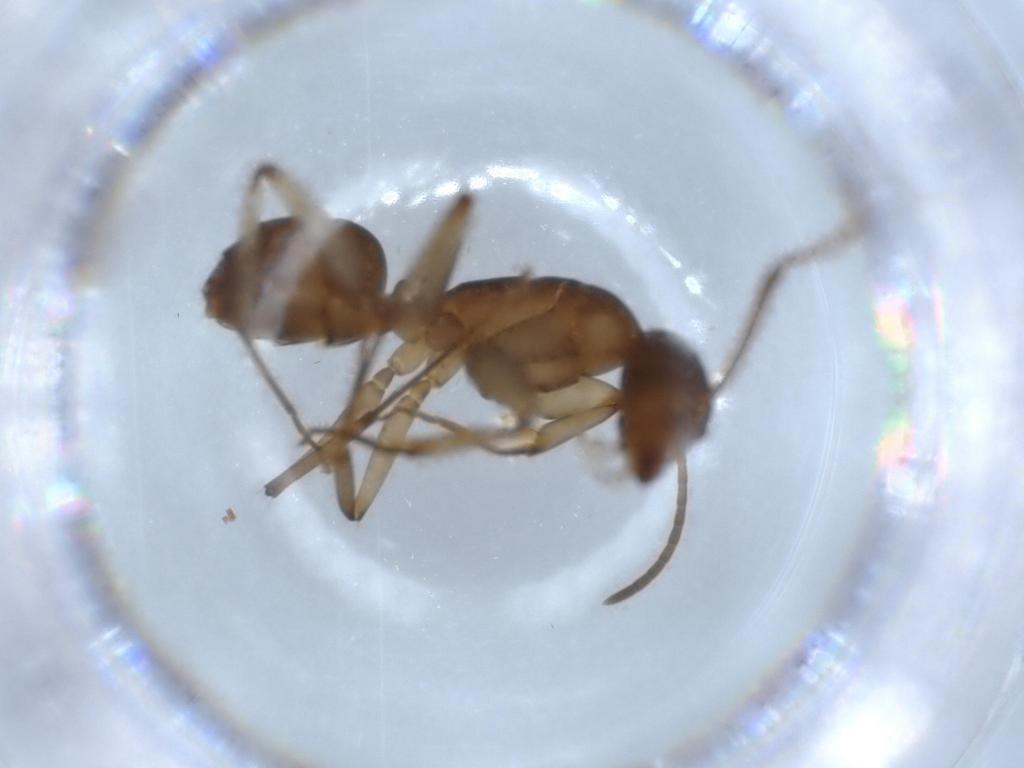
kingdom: Animalia
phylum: Arthropoda
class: Insecta
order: Hymenoptera
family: Formicidae
